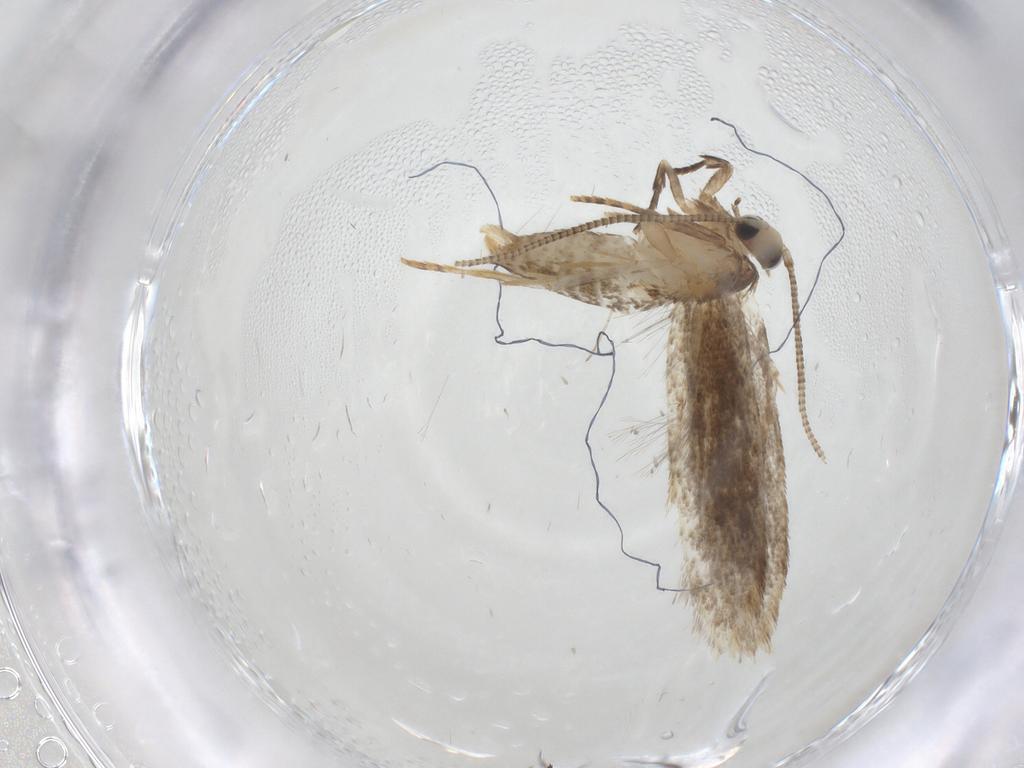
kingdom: Animalia
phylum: Arthropoda
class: Insecta
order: Lepidoptera
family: Tineidae
